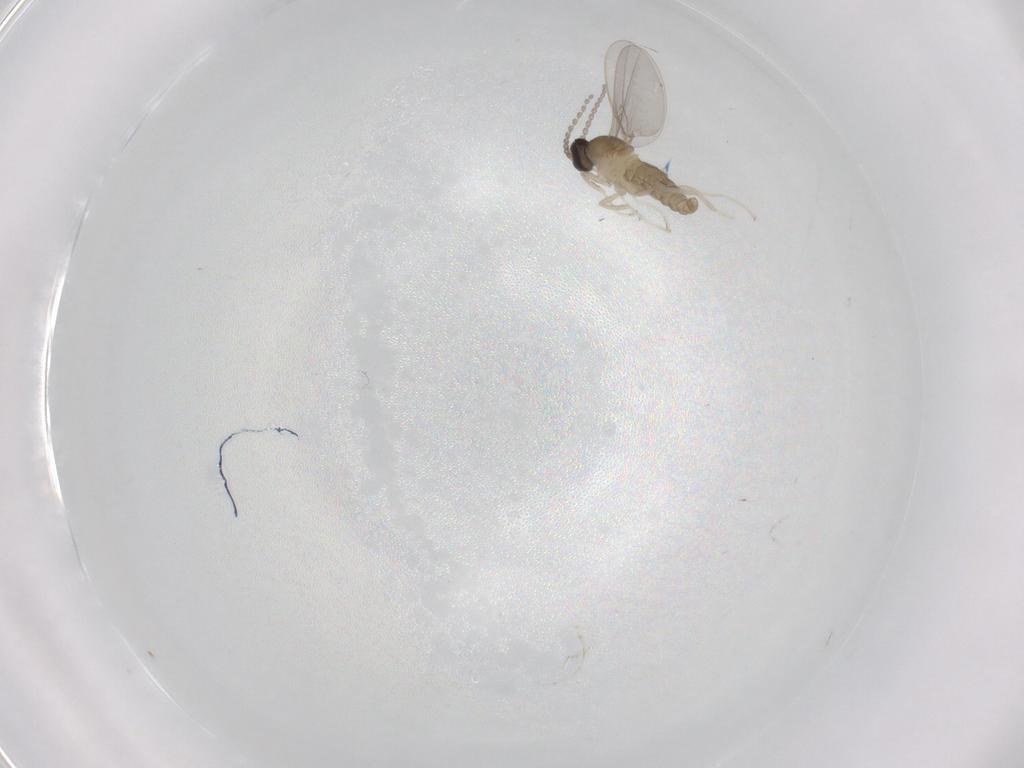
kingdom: Animalia
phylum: Arthropoda
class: Insecta
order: Diptera
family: Cecidomyiidae
